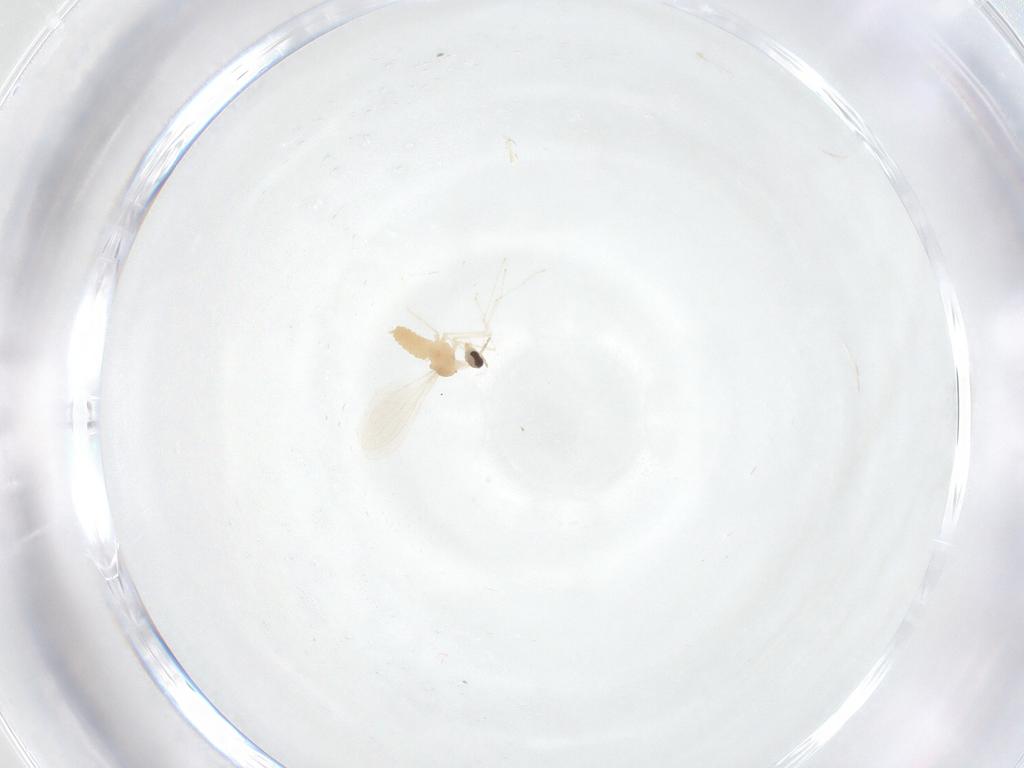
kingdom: Animalia
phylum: Arthropoda
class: Insecta
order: Diptera
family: Cecidomyiidae
